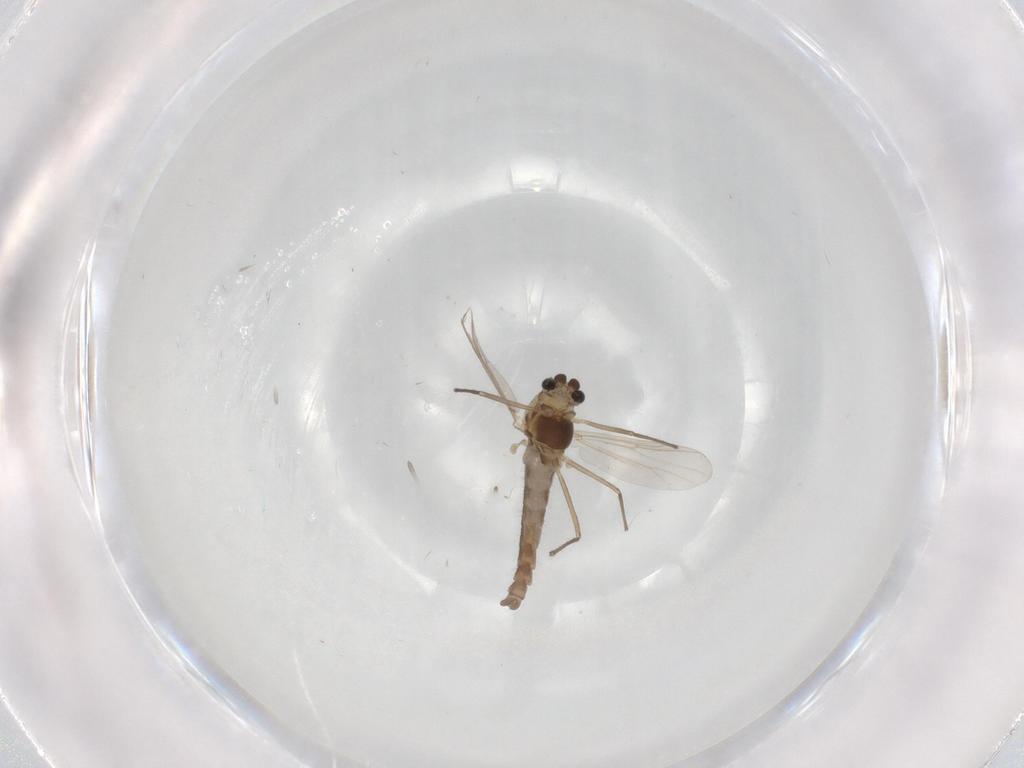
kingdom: Animalia
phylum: Arthropoda
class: Insecta
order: Diptera
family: Chironomidae
